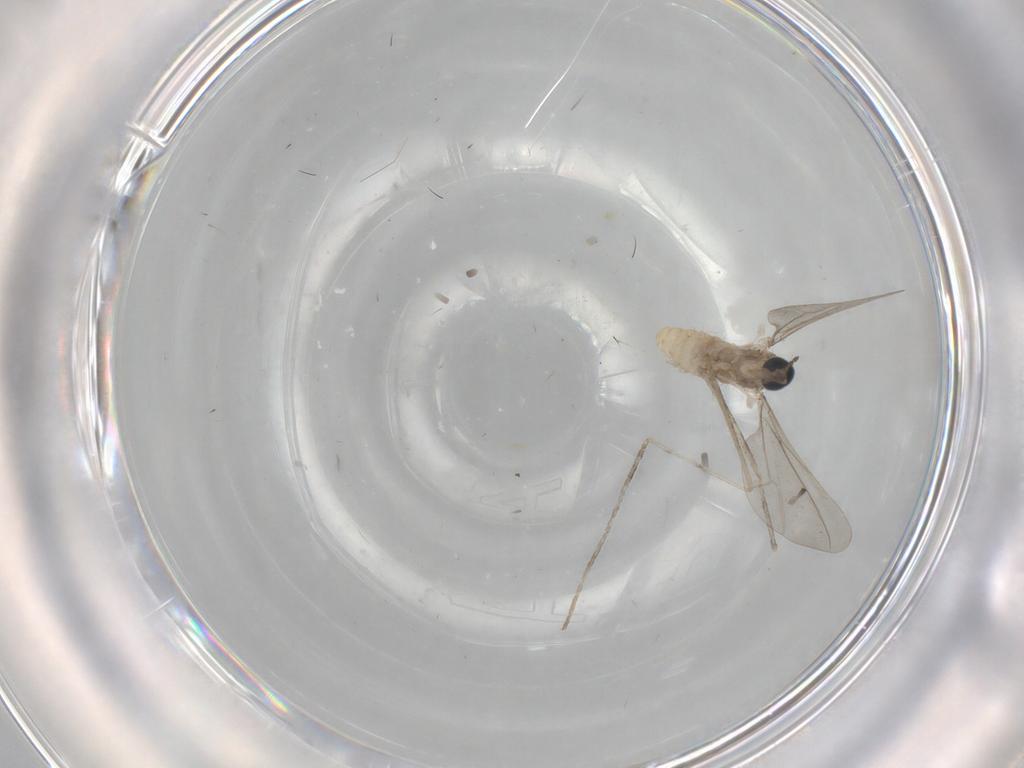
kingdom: Animalia
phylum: Arthropoda
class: Insecta
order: Diptera
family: Cecidomyiidae
